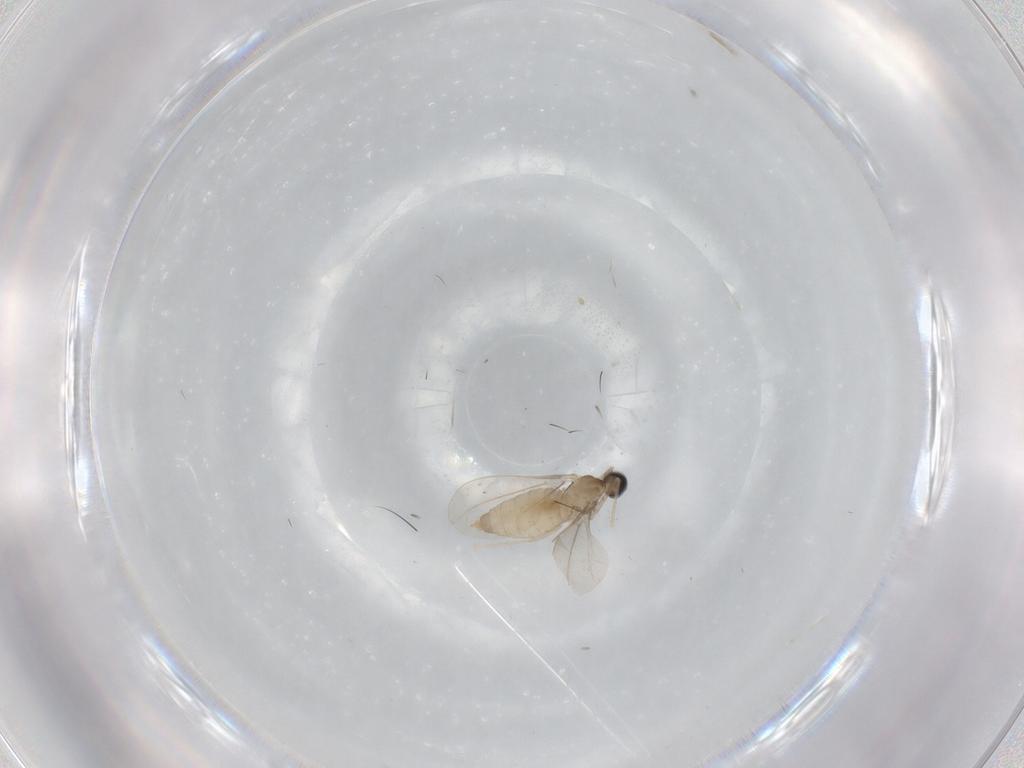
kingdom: Animalia
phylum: Arthropoda
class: Insecta
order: Diptera
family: Cecidomyiidae
